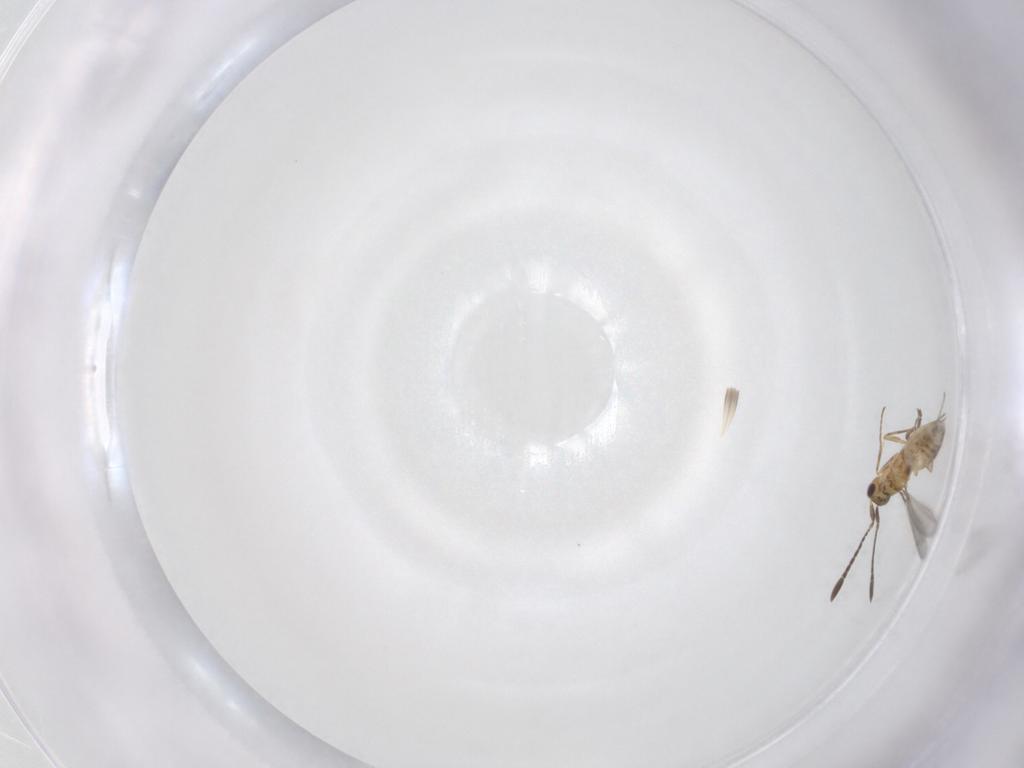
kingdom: Animalia
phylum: Arthropoda
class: Insecta
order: Hymenoptera
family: Mymaridae
